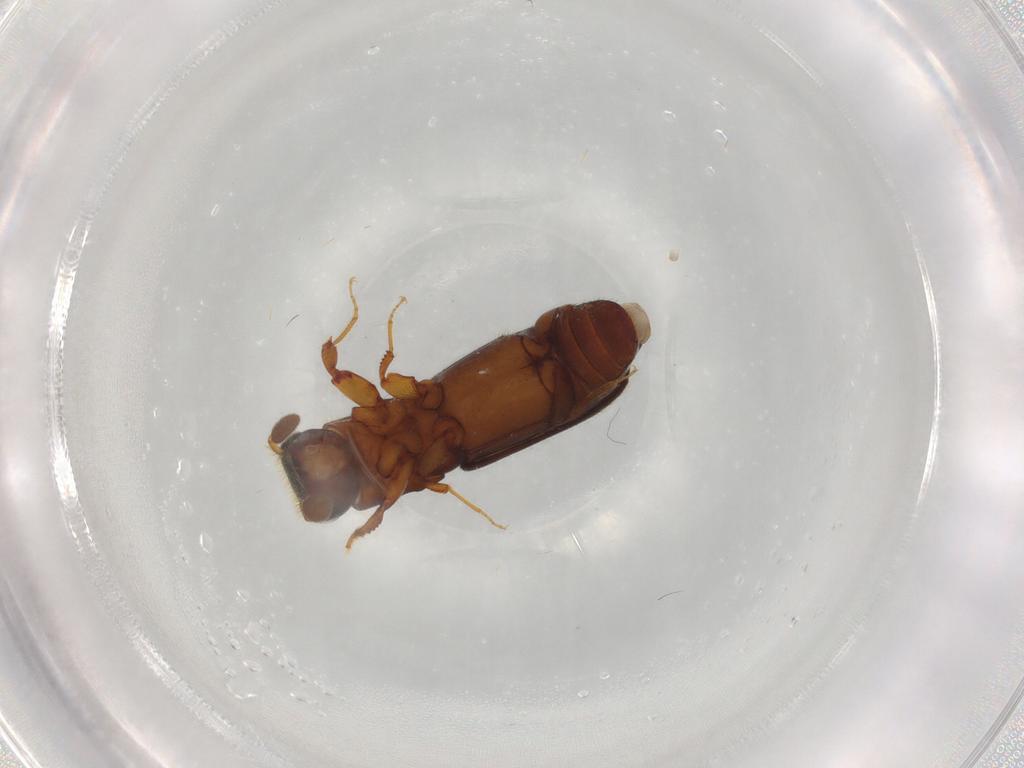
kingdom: Animalia
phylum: Arthropoda
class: Insecta
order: Coleoptera
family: Curculionidae
